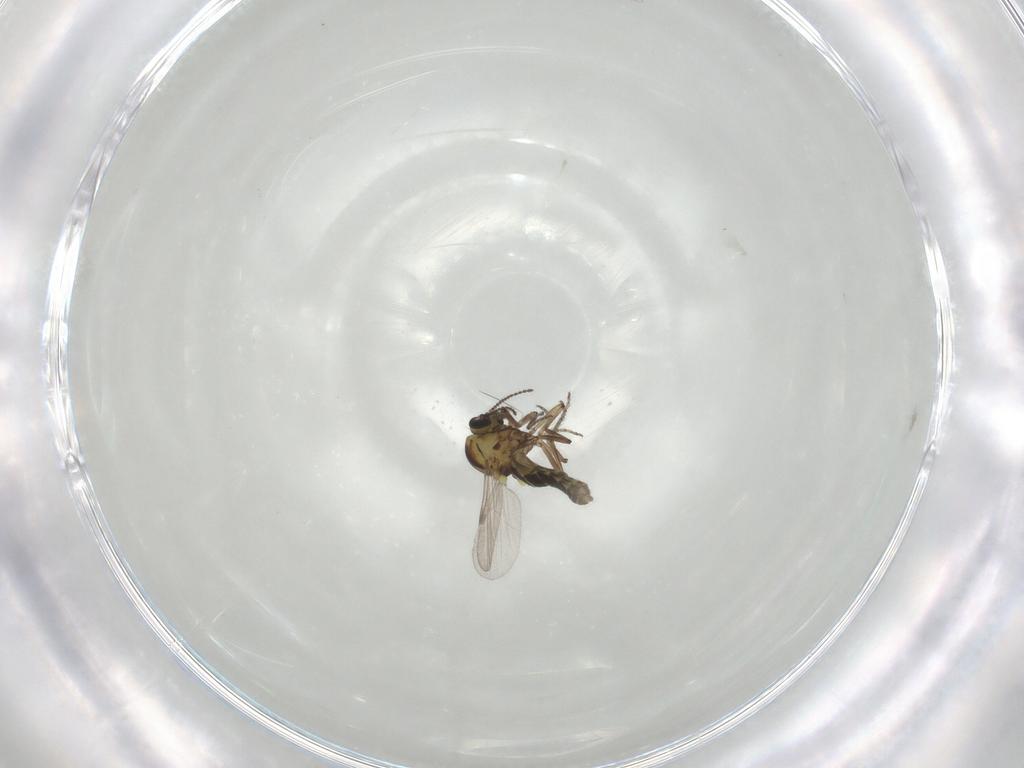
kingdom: Animalia
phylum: Arthropoda
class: Insecta
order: Diptera
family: Ceratopogonidae
